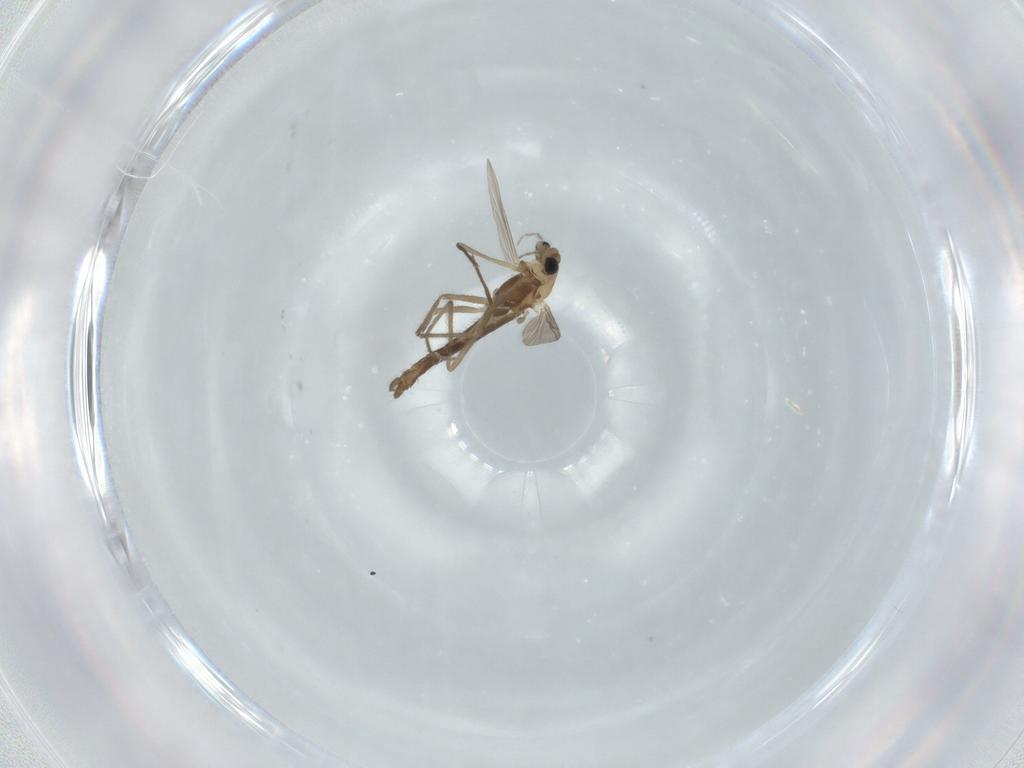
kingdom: Animalia
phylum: Arthropoda
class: Insecta
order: Diptera
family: Chironomidae
